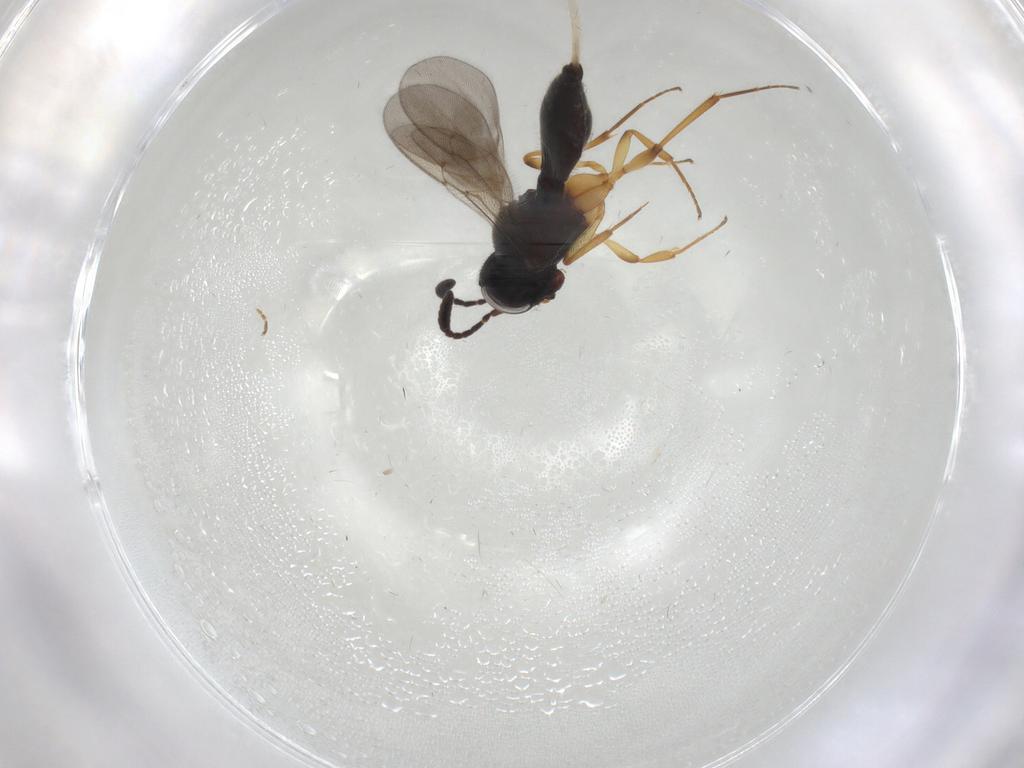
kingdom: Animalia
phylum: Arthropoda
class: Insecta
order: Hymenoptera
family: Scelionidae
